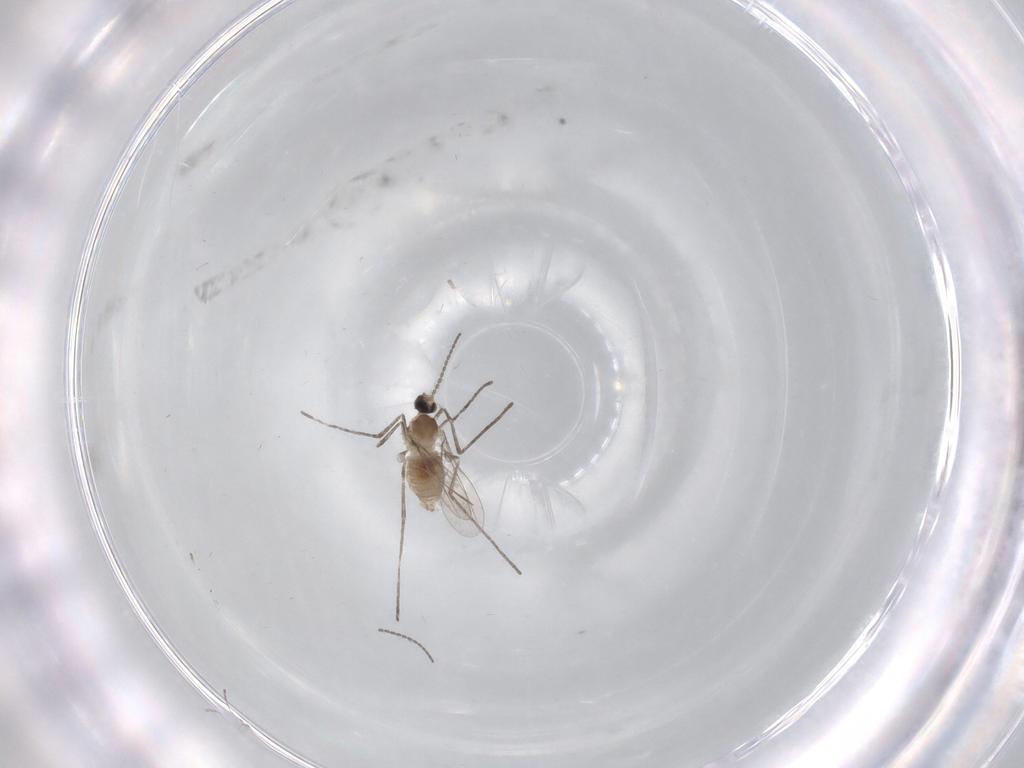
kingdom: Animalia
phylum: Arthropoda
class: Insecta
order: Diptera
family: Cecidomyiidae
